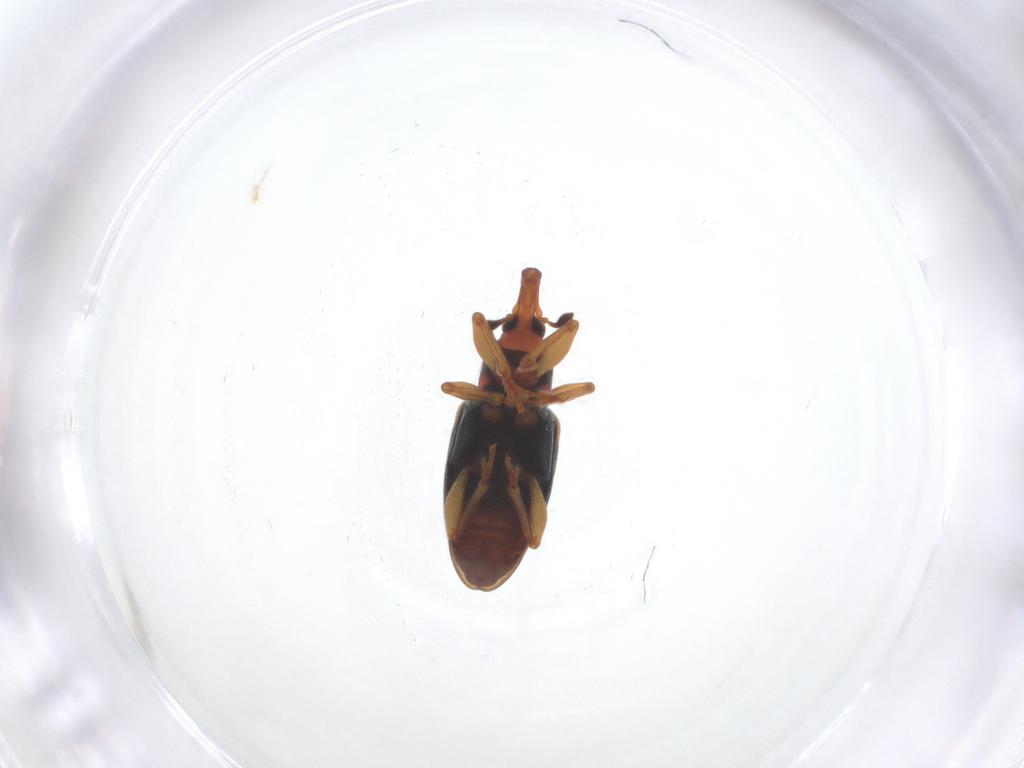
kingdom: Animalia
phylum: Arthropoda
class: Insecta
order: Coleoptera
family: Curculionidae
